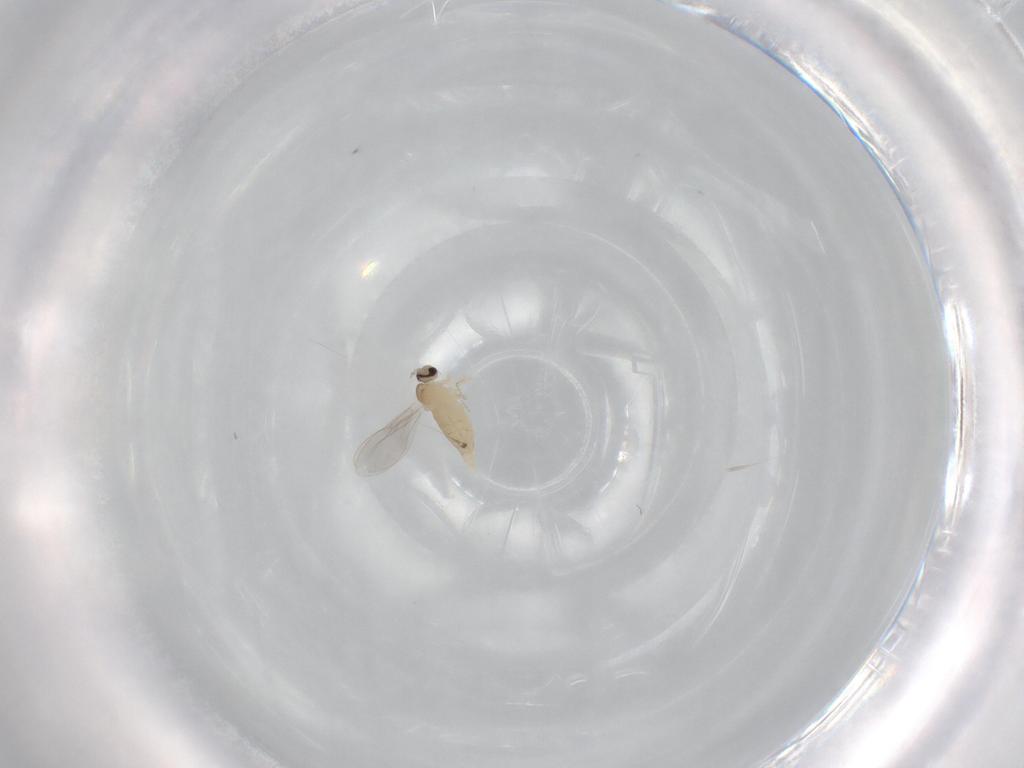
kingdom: Animalia
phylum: Arthropoda
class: Insecta
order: Diptera
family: Cecidomyiidae
